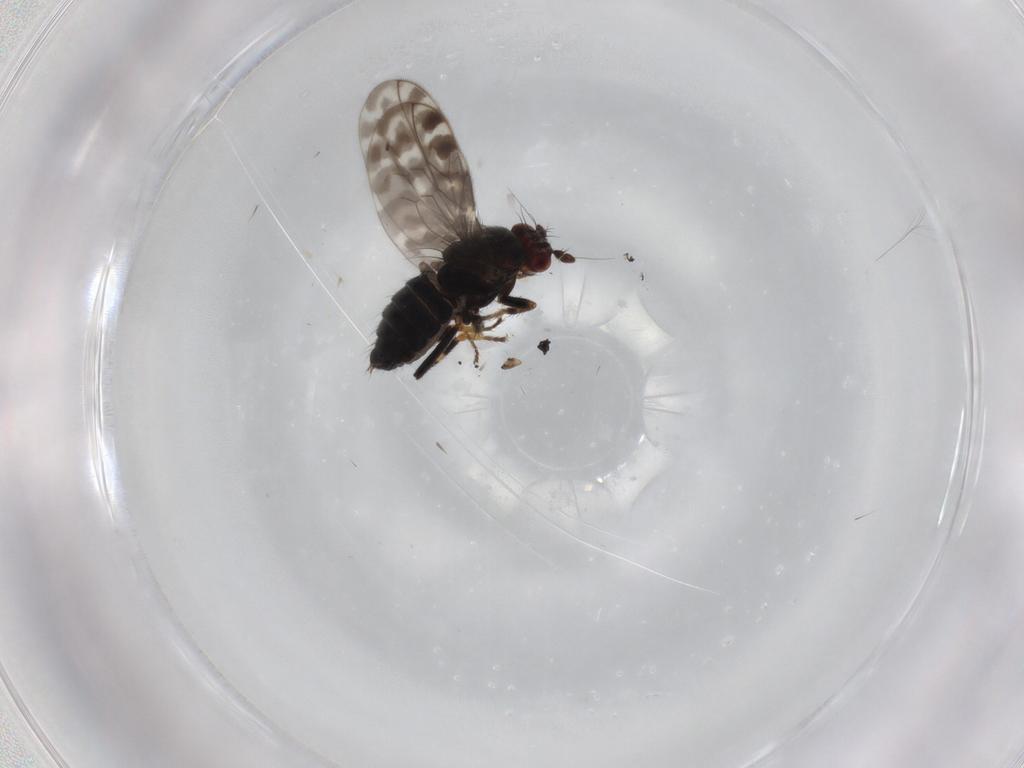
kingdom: Animalia
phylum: Arthropoda
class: Insecta
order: Diptera
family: Sphaeroceridae
